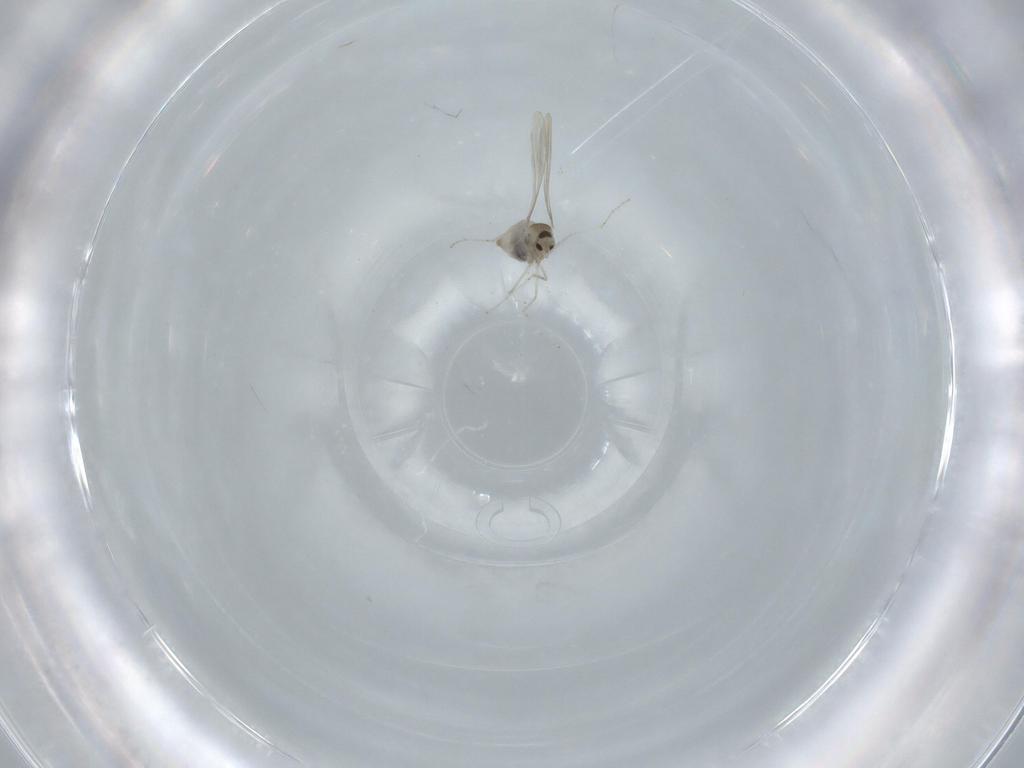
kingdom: Animalia
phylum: Arthropoda
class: Insecta
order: Diptera
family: Cecidomyiidae
